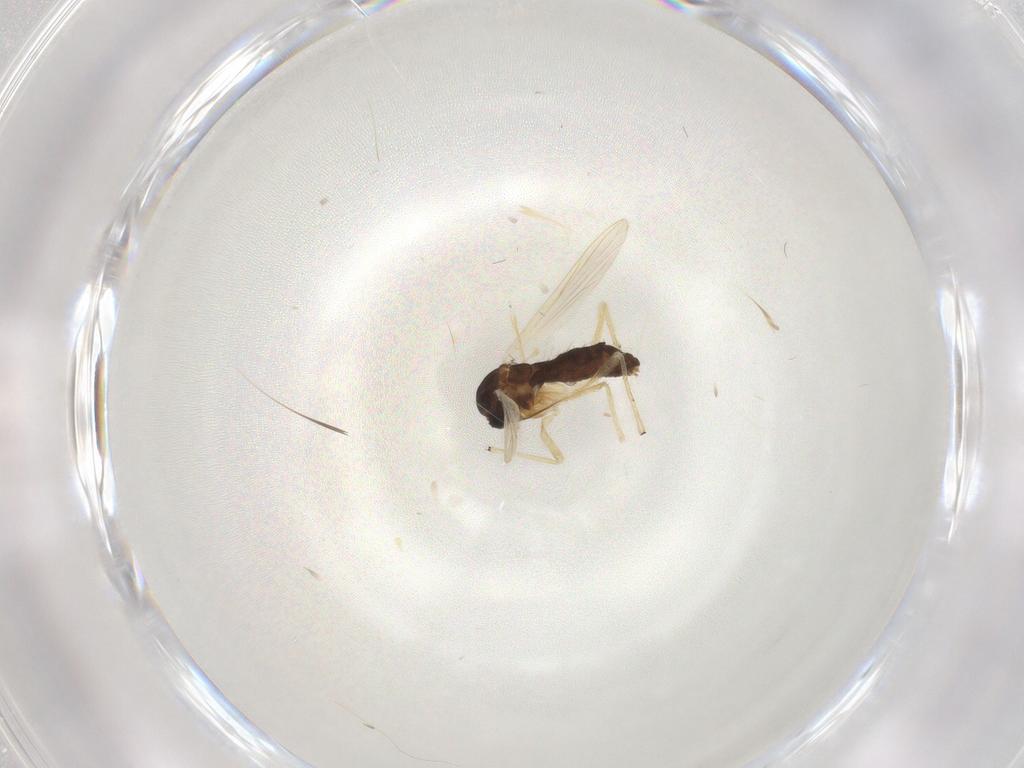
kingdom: Animalia
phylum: Arthropoda
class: Insecta
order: Diptera
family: Chironomidae
